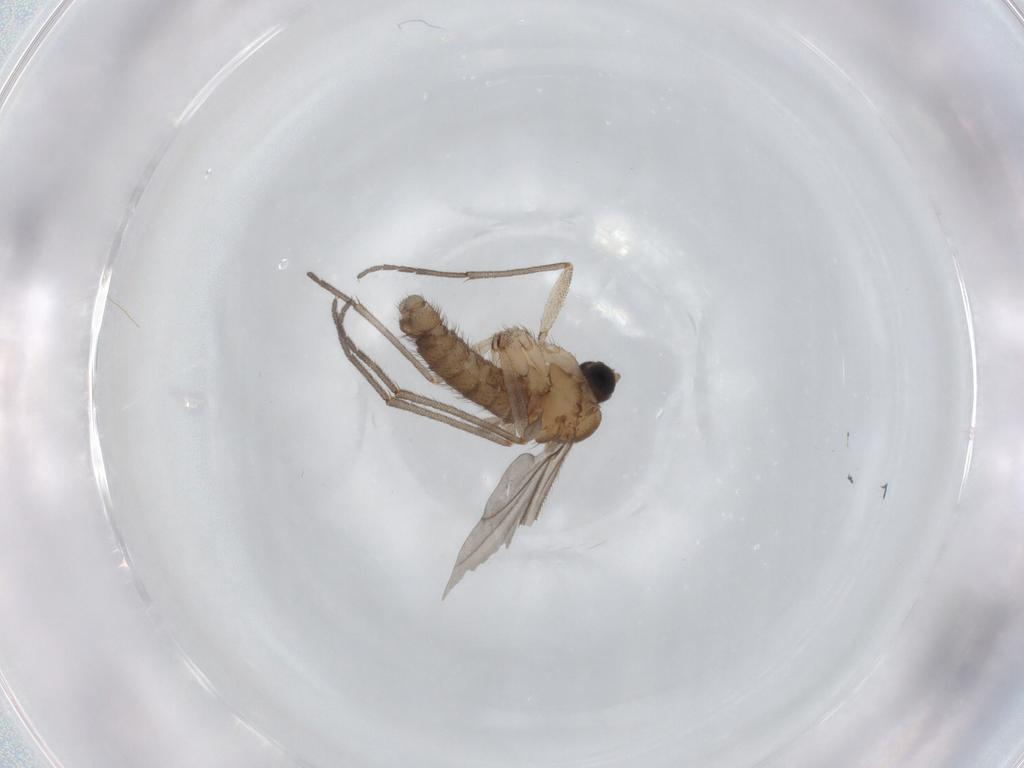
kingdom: Animalia
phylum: Arthropoda
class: Insecta
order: Diptera
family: Sciaridae
